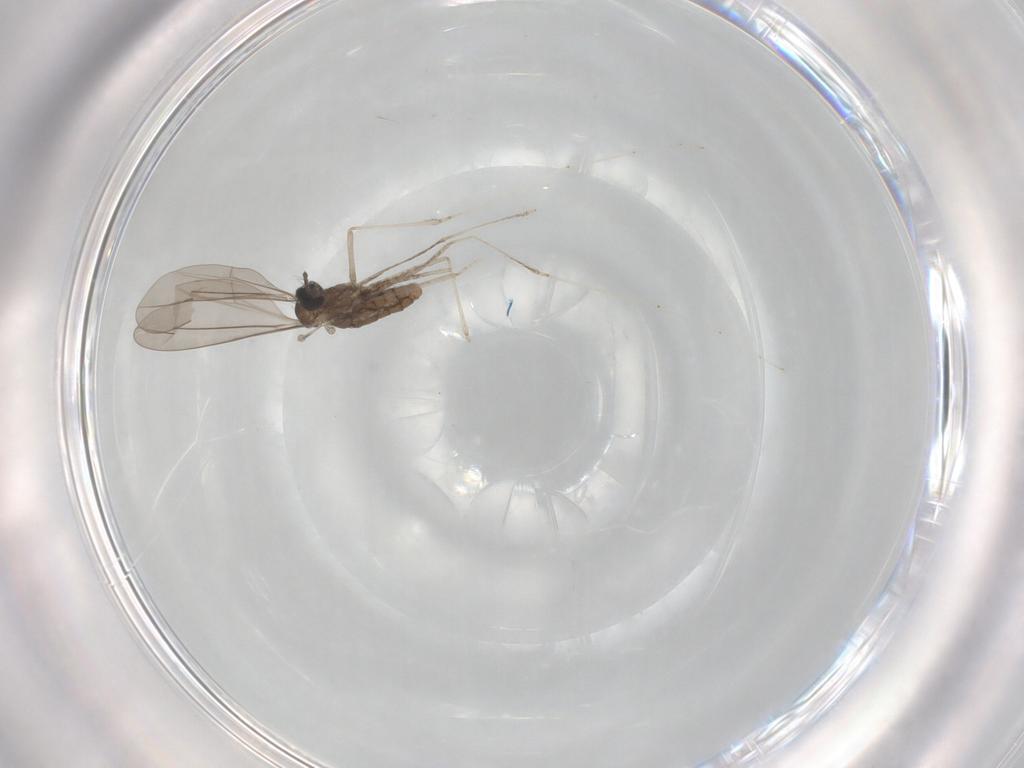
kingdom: Animalia
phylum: Arthropoda
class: Insecta
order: Diptera
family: Cecidomyiidae
